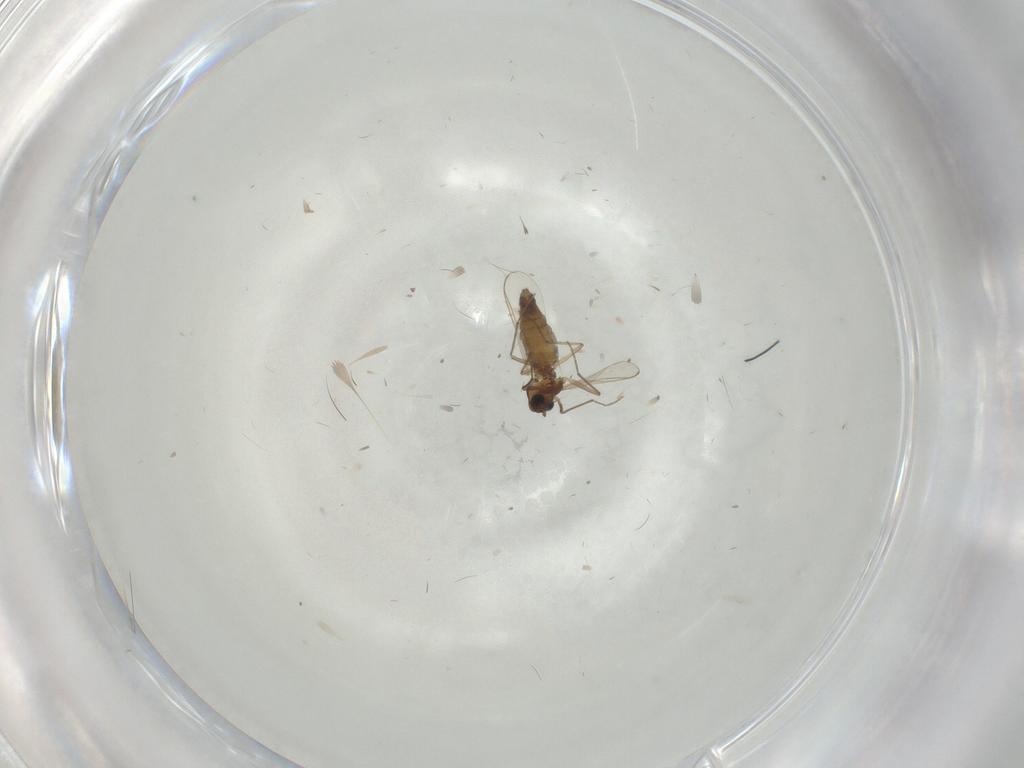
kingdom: Animalia
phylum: Arthropoda
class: Insecta
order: Diptera
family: Chironomidae
